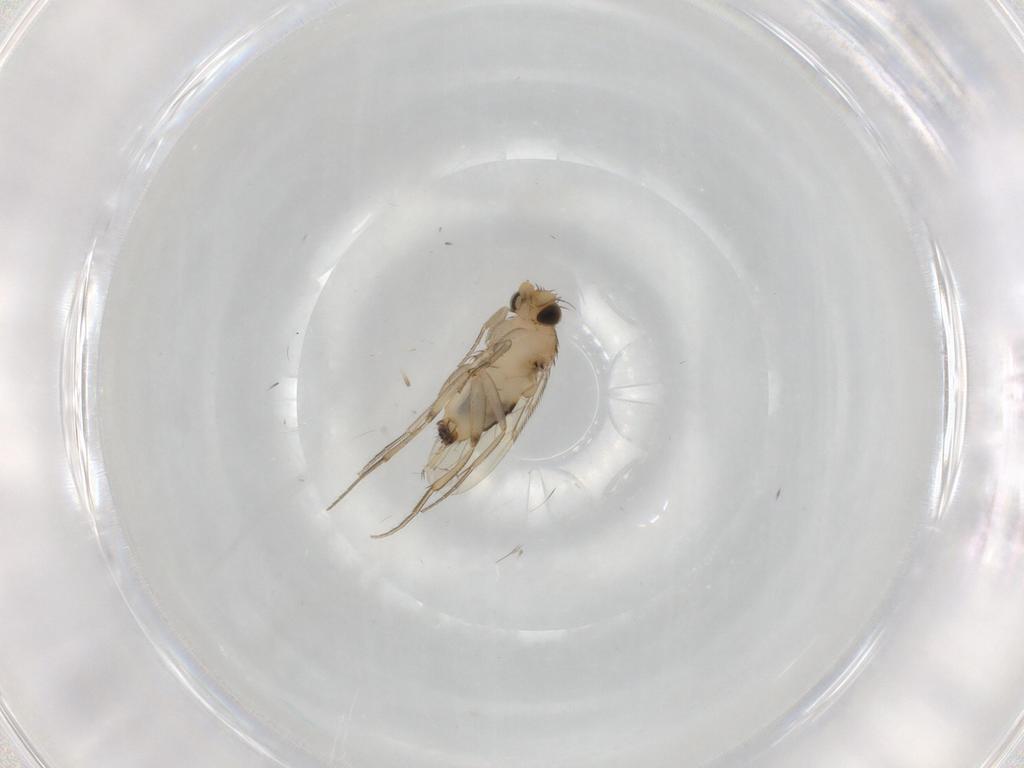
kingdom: Animalia
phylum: Arthropoda
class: Insecta
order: Diptera
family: Phoridae
